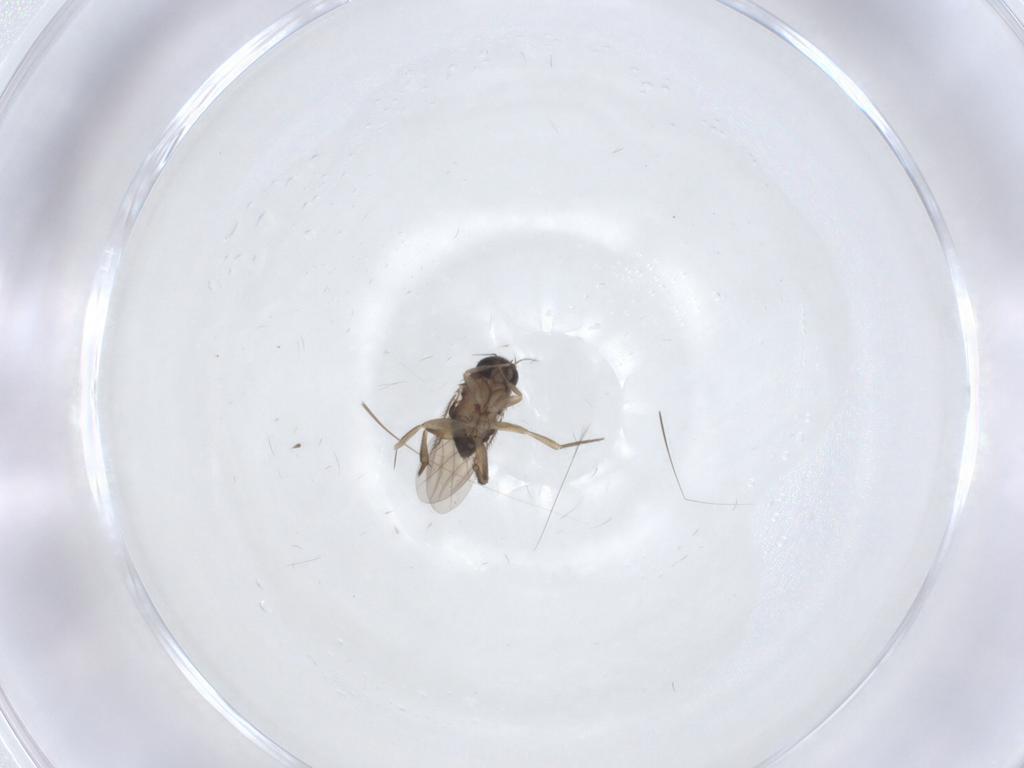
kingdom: Animalia
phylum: Arthropoda
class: Insecta
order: Diptera
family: Phoridae
